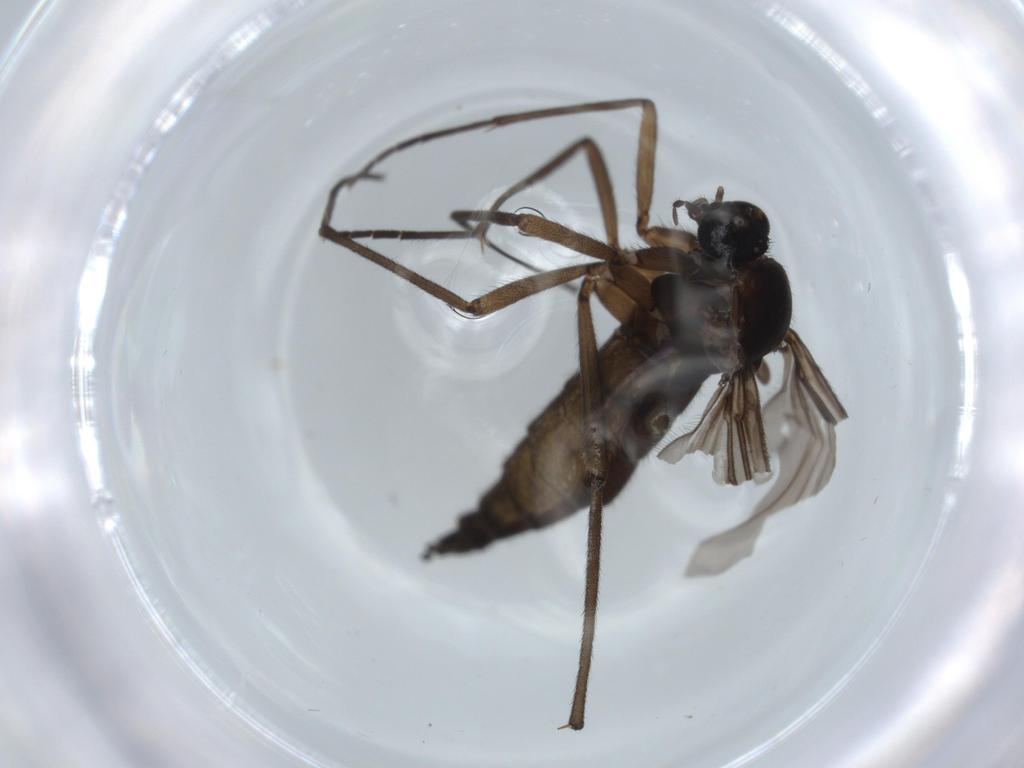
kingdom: Animalia
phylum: Arthropoda
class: Insecta
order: Diptera
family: Sciaridae
